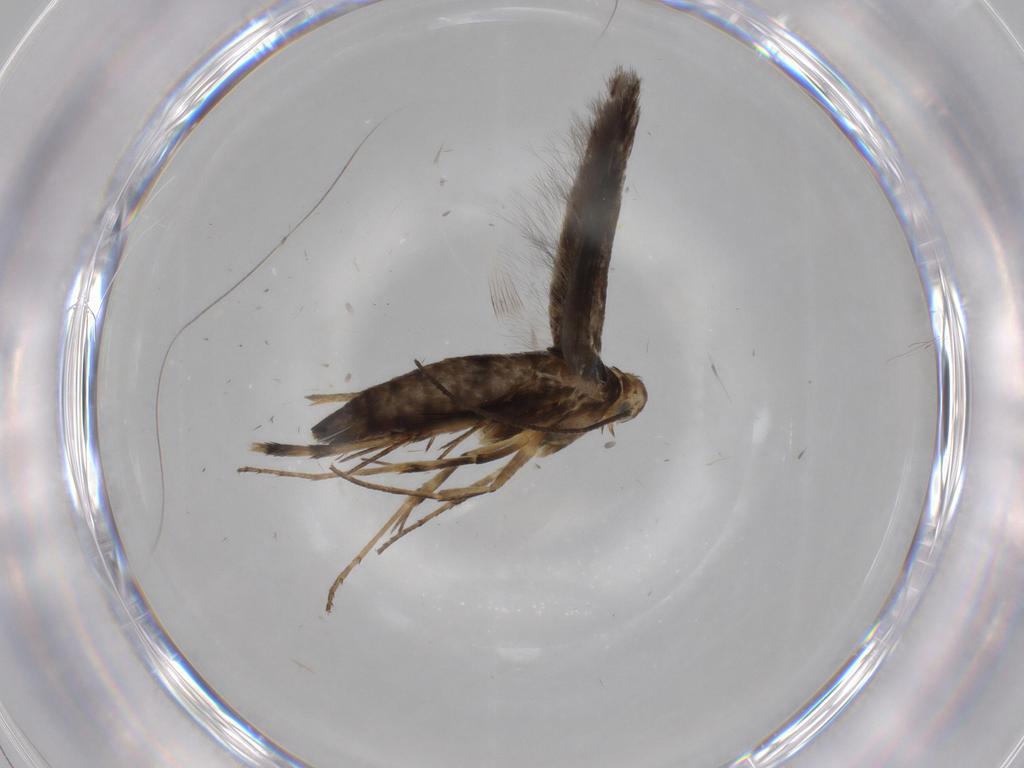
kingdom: Animalia
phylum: Arthropoda
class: Insecta
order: Lepidoptera
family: Heliodinidae
